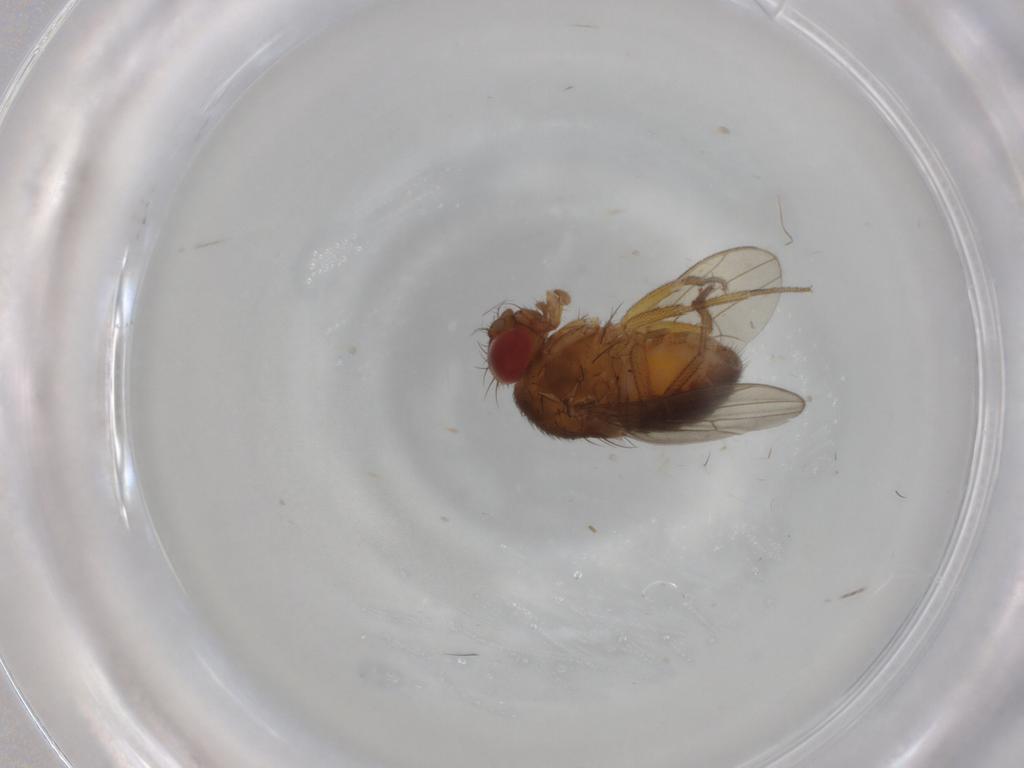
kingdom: Animalia
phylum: Arthropoda
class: Insecta
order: Diptera
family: Drosophilidae
